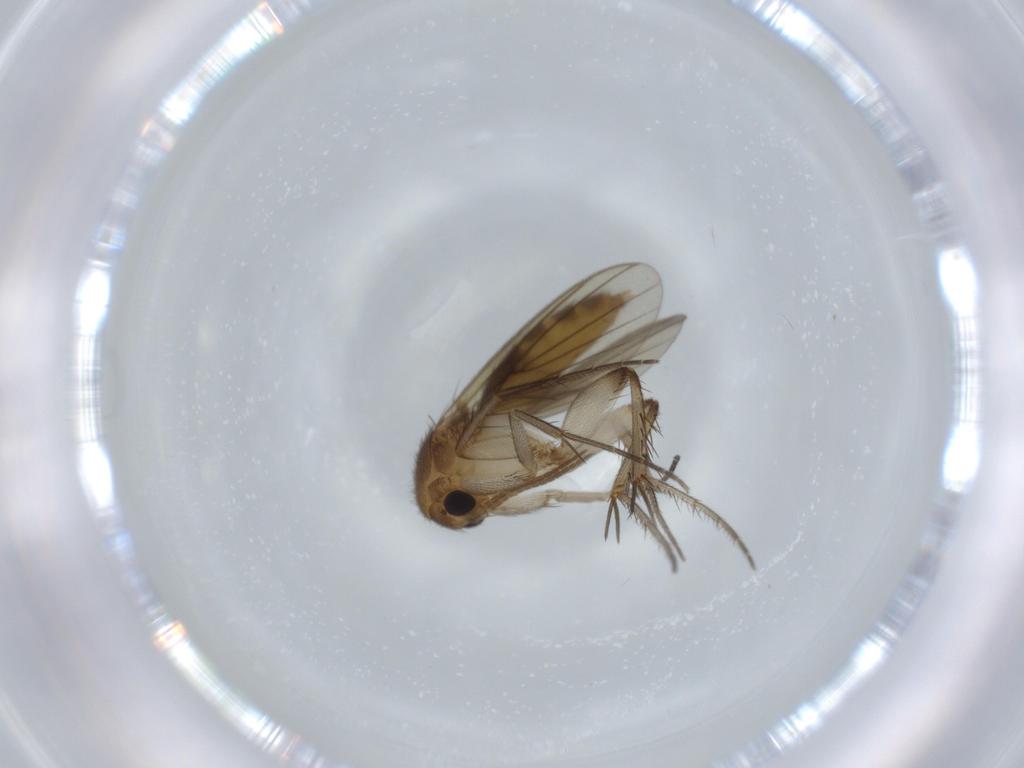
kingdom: Animalia
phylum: Arthropoda
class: Insecta
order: Diptera
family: Mycetophilidae
